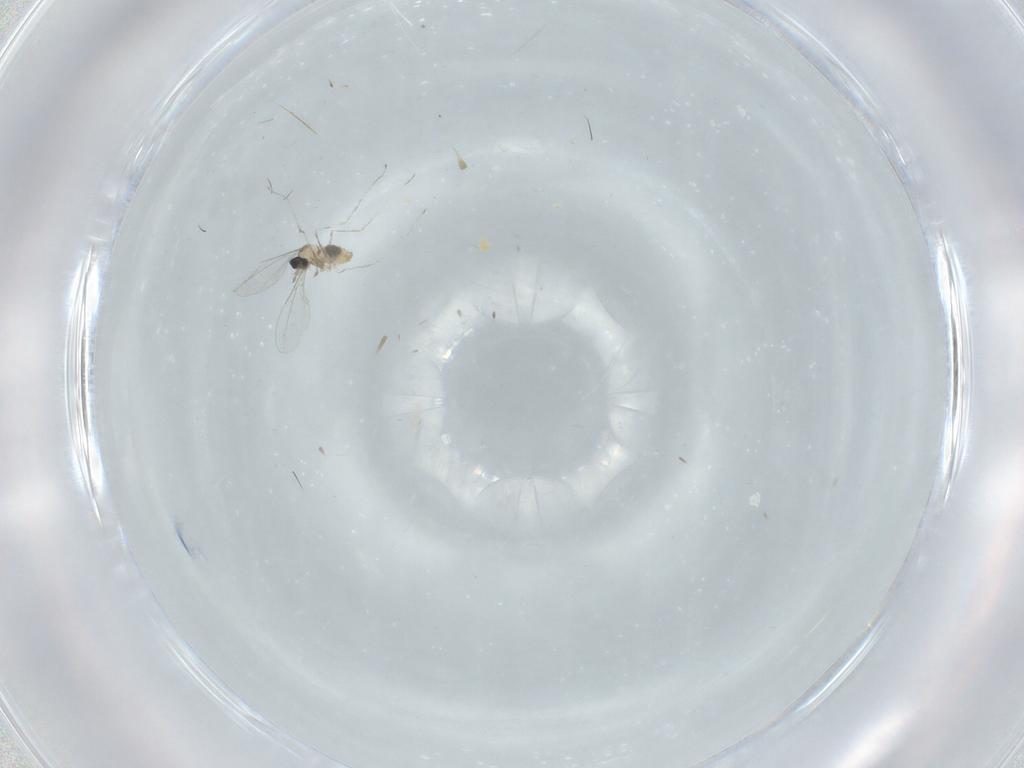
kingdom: Animalia
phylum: Arthropoda
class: Insecta
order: Diptera
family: Cecidomyiidae
